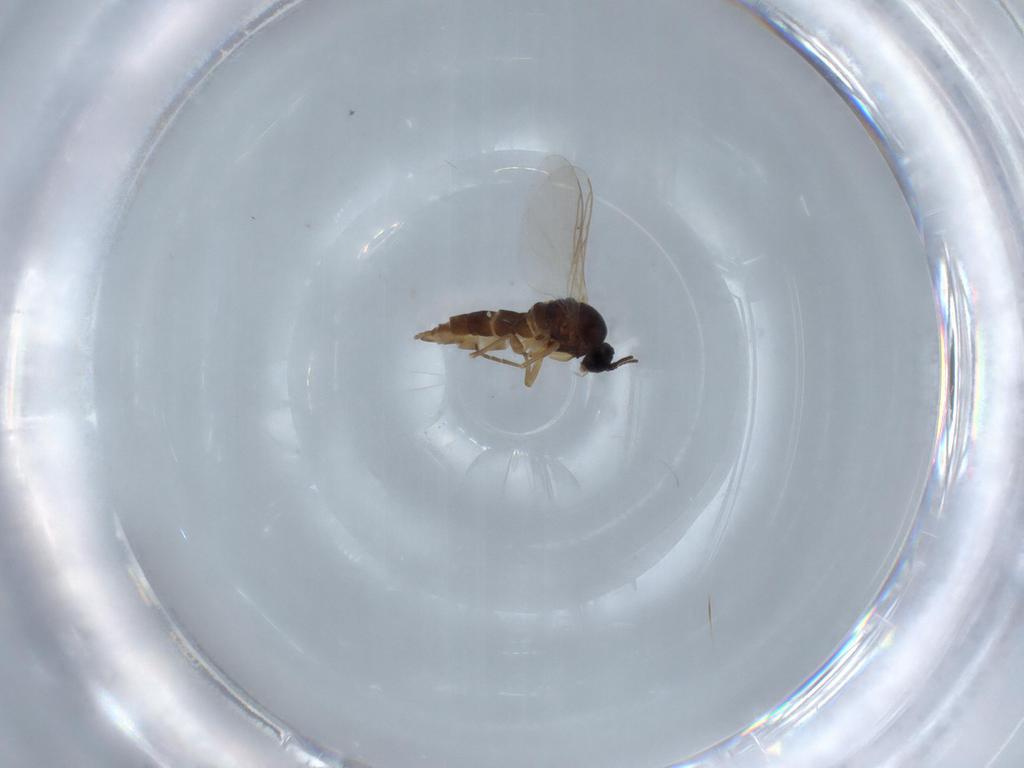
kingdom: Animalia
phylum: Arthropoda
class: Insecta
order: Diptera
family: Sciaridae
